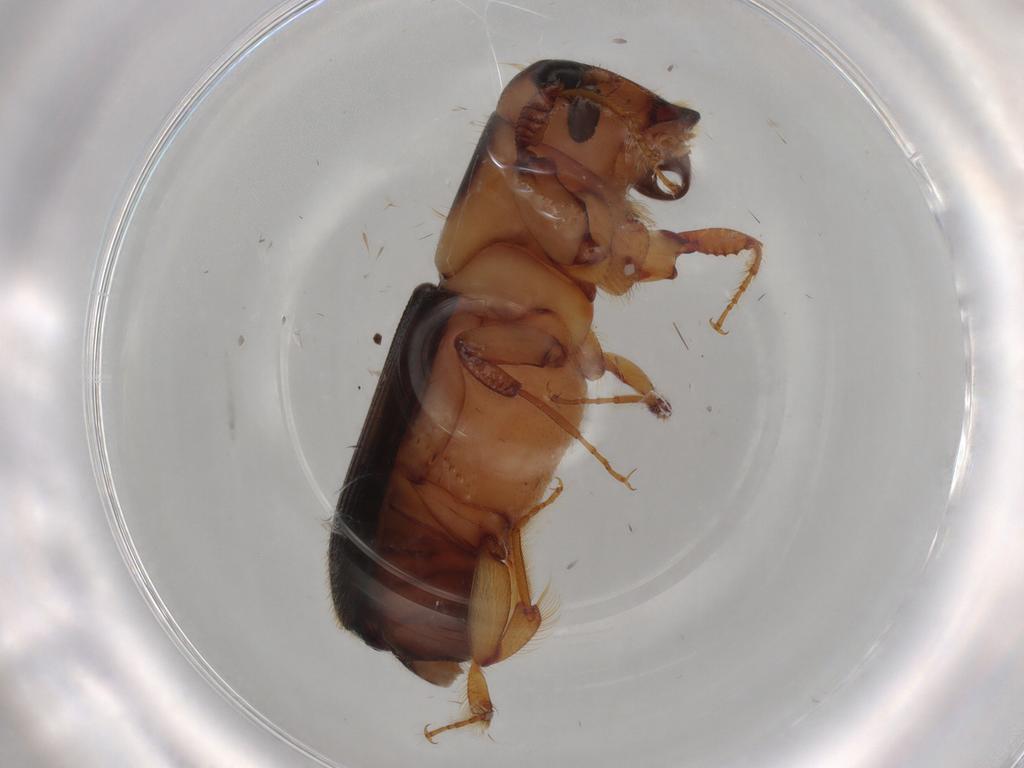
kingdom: Animalia
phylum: Arthropoda
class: Insecta
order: Coleoptera
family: Curculionidae
